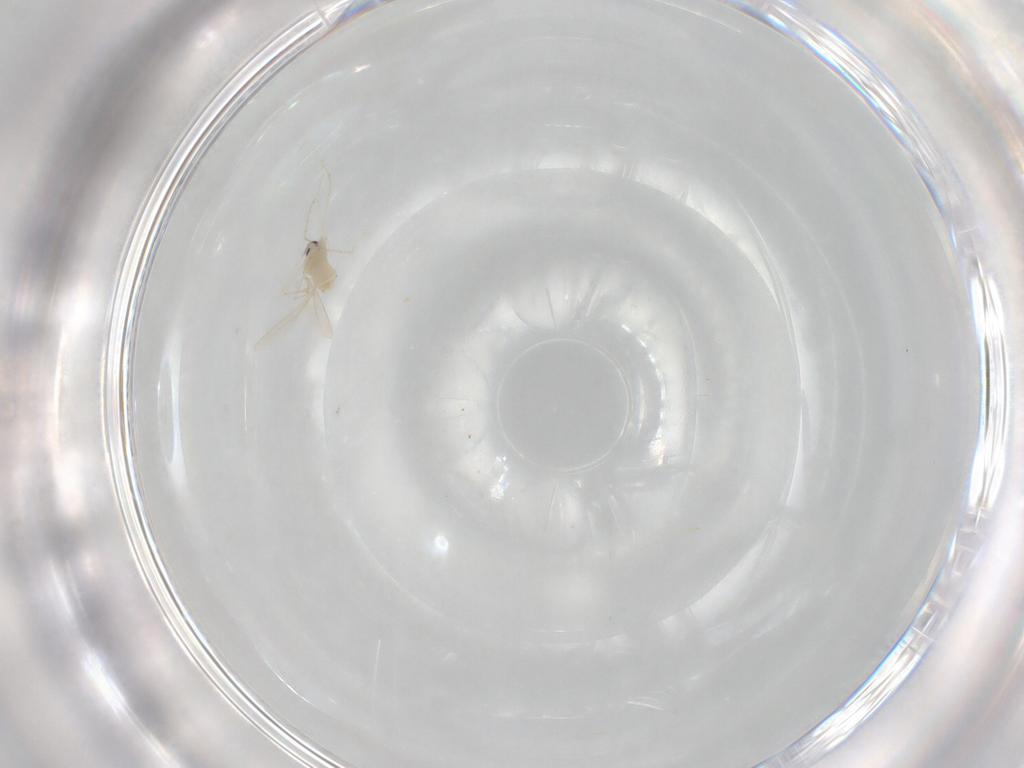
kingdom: Animalia
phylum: Arthropoda
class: Insecta
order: Diptera
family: Cecidomyiidae
